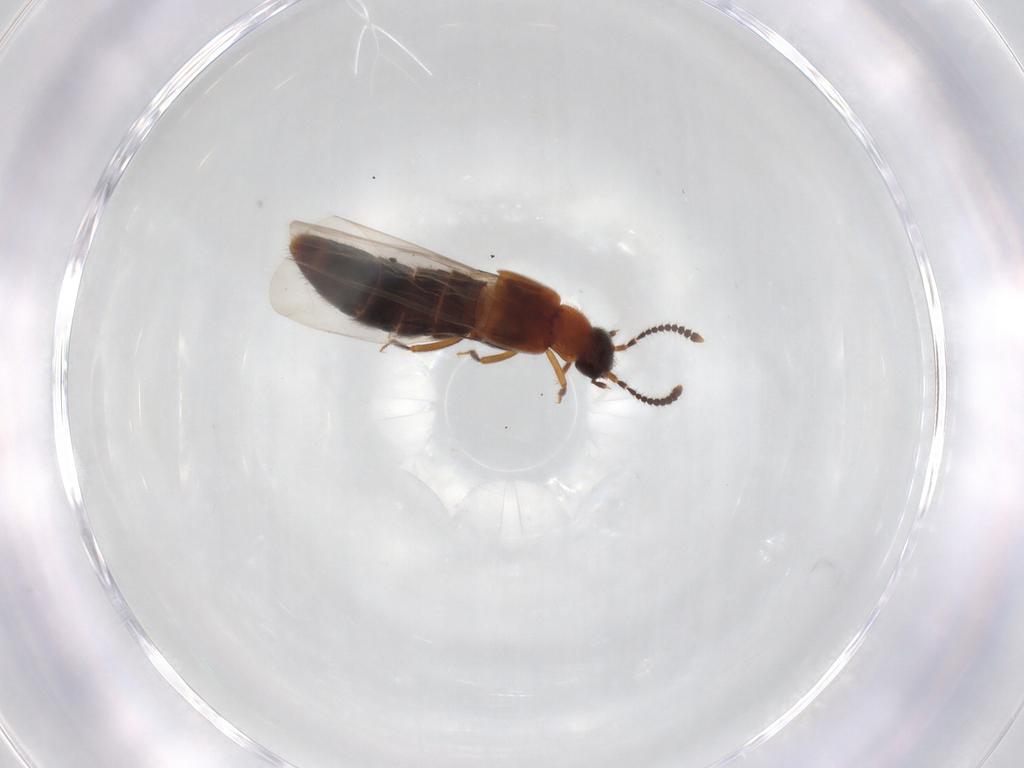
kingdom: Animalia
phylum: Arthropoda
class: Insecta
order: Coleoptera
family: Staphylinidae
